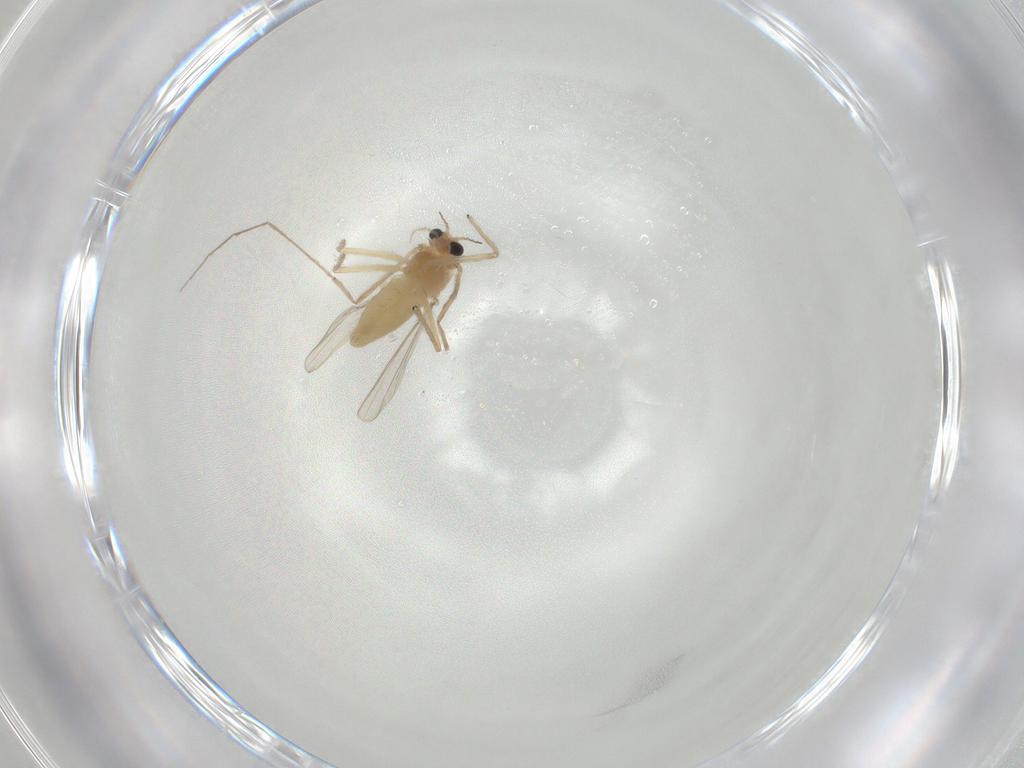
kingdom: Animalia
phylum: Arthropoda
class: Insecta
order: Diptera
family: Chironomidae
